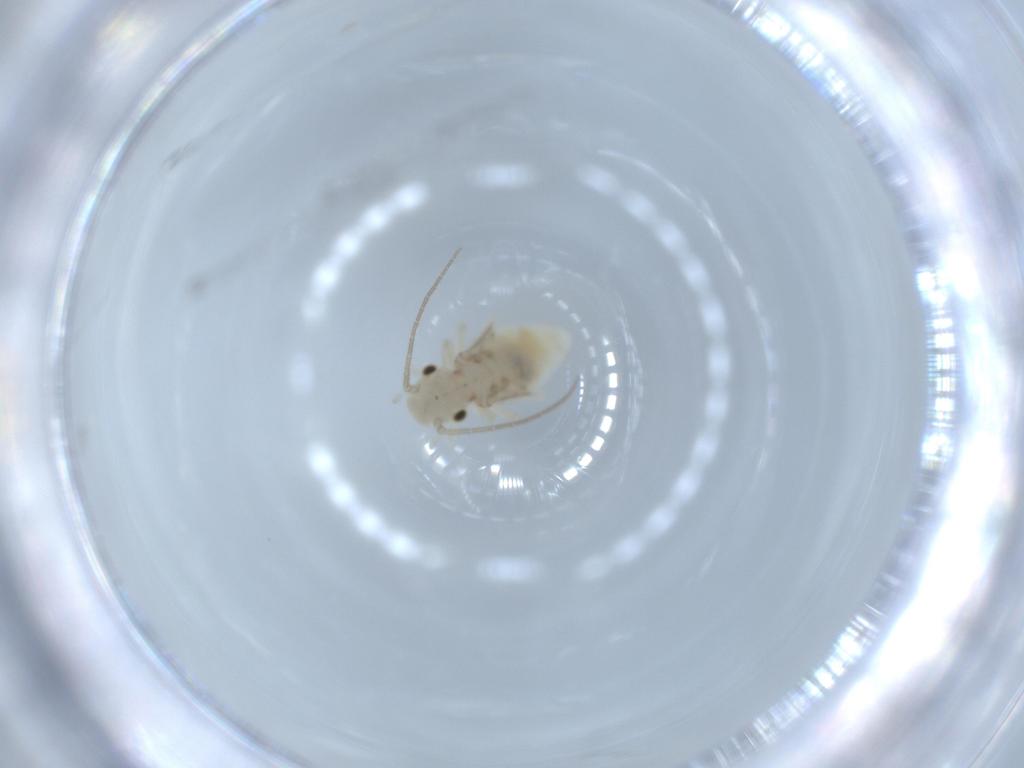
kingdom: Animalia
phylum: Arthropoda
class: Insecta
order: Psocodea
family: Caeciliusidae
